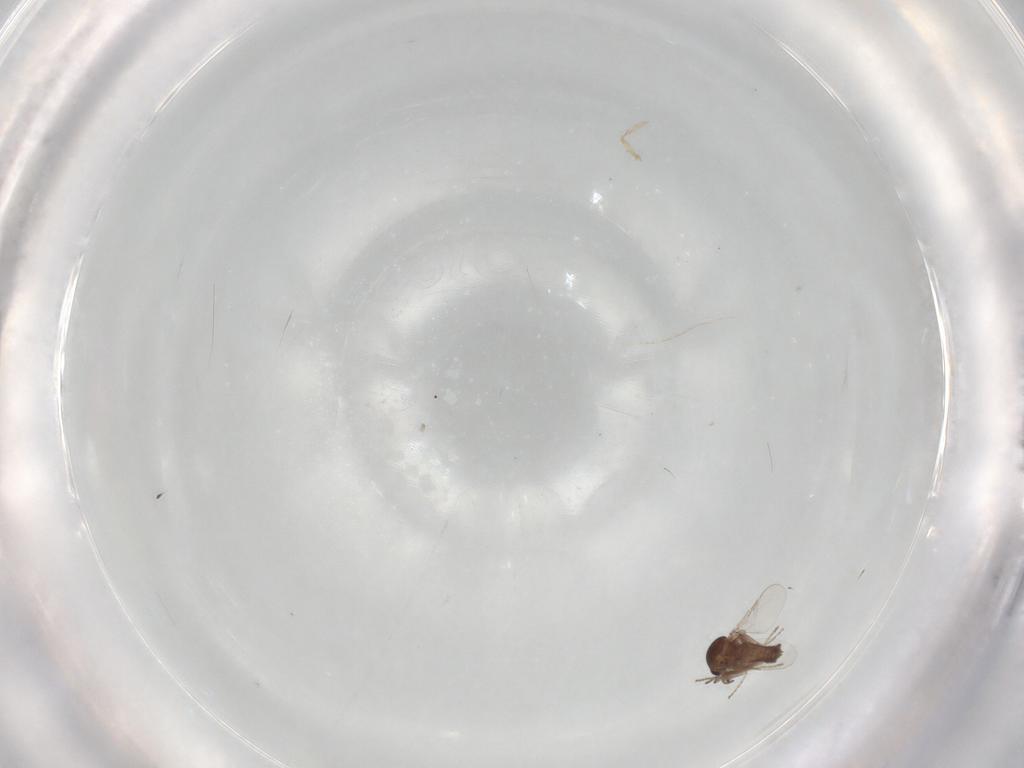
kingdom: Animalia
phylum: Arthropoda
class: Insecta
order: Diptera
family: Ceratopogonidae
